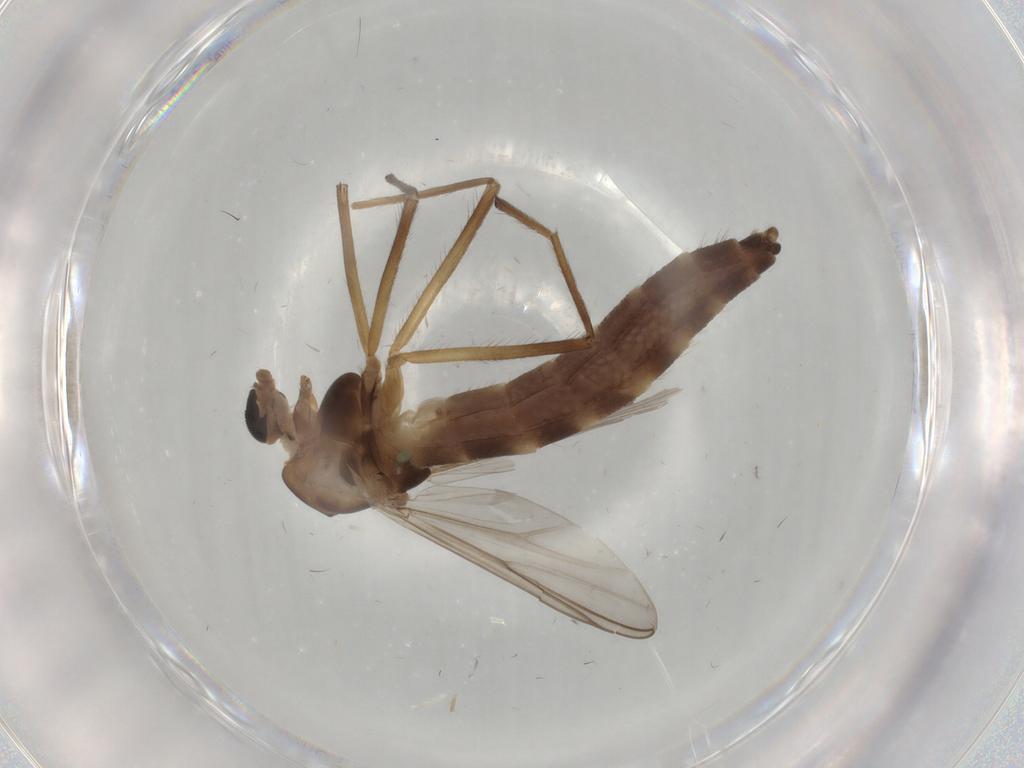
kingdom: Animalia
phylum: Arthropoda
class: Insecta
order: Diptera
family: Chironomidae
